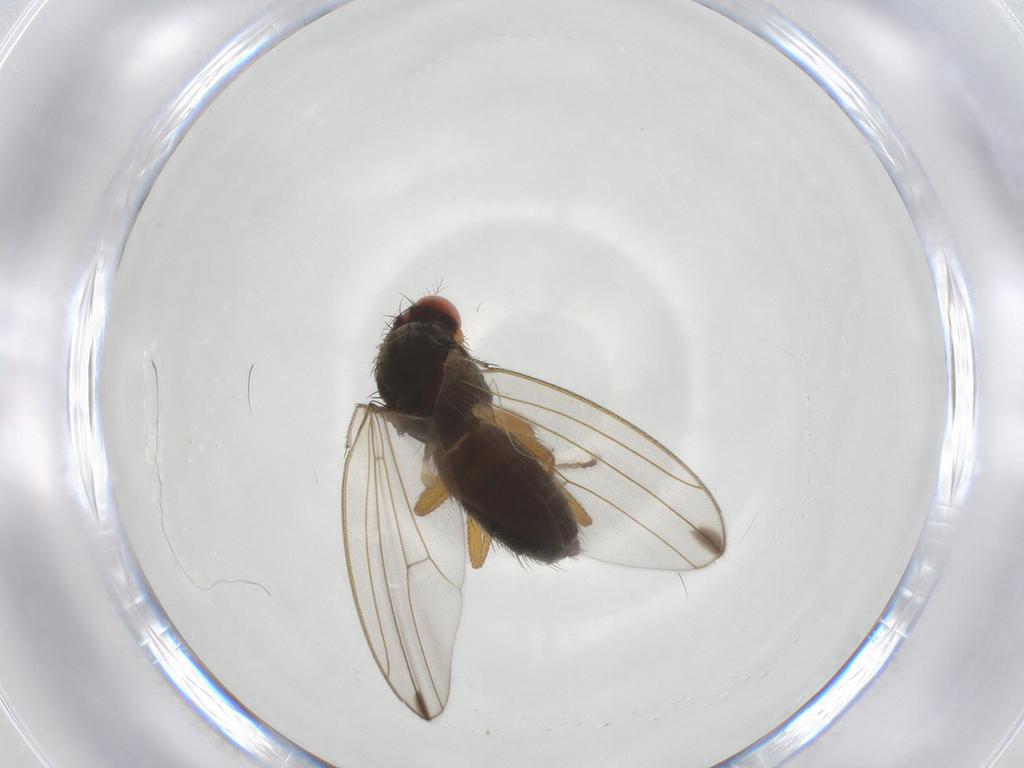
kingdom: Animalia
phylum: Arthropoda
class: Insecta
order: Diptera
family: Drosophilidae
